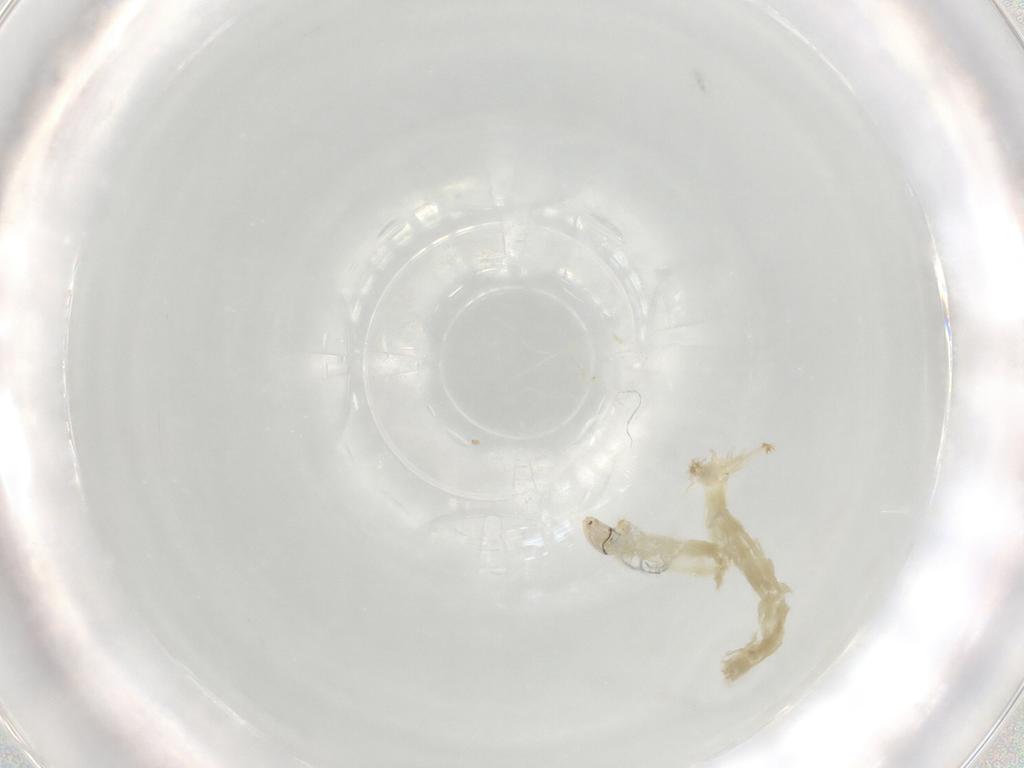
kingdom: Animalia
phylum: Arthropoda
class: Insecta
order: Diptera
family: Chironomidae
